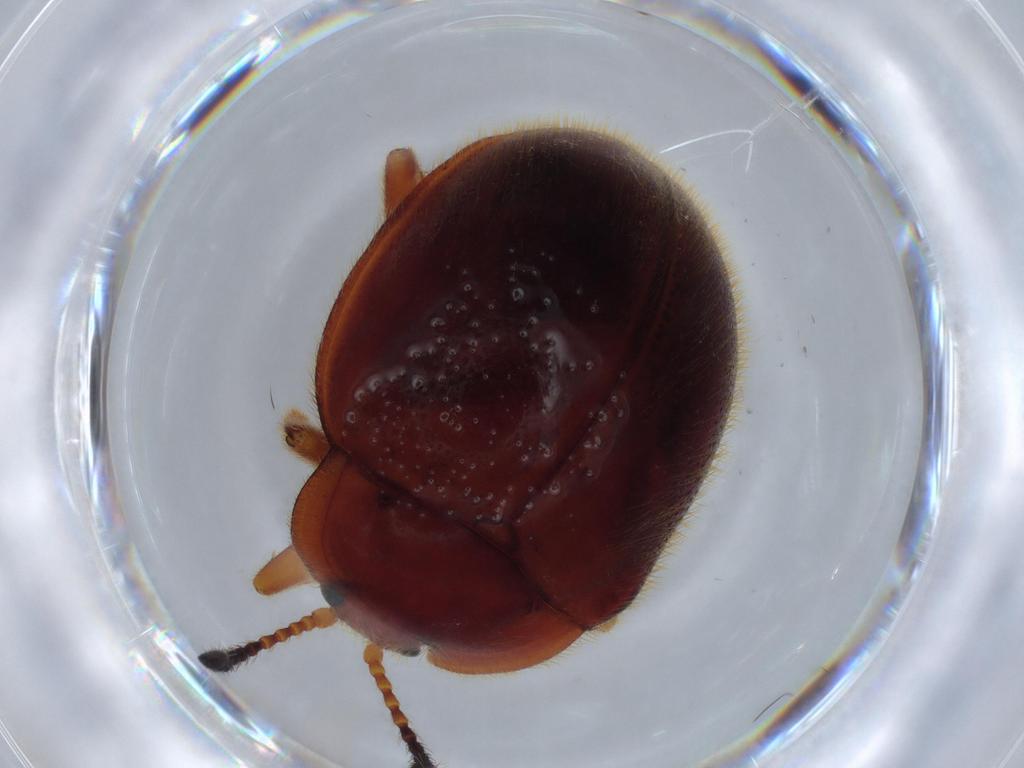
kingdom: Animalia
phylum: Arthropoda
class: Insecta
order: Coleoptera
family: Endomychidae
